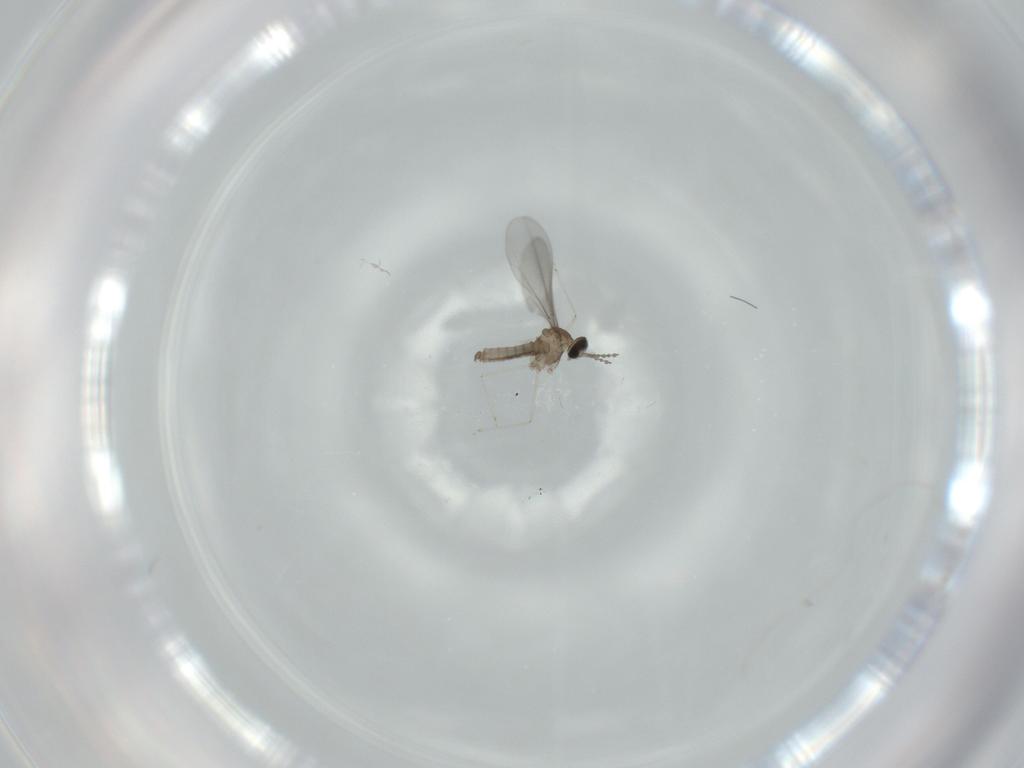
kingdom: Animalia
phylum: Arthropoda
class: Insecta
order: Diptera
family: Cecidomyiidae
